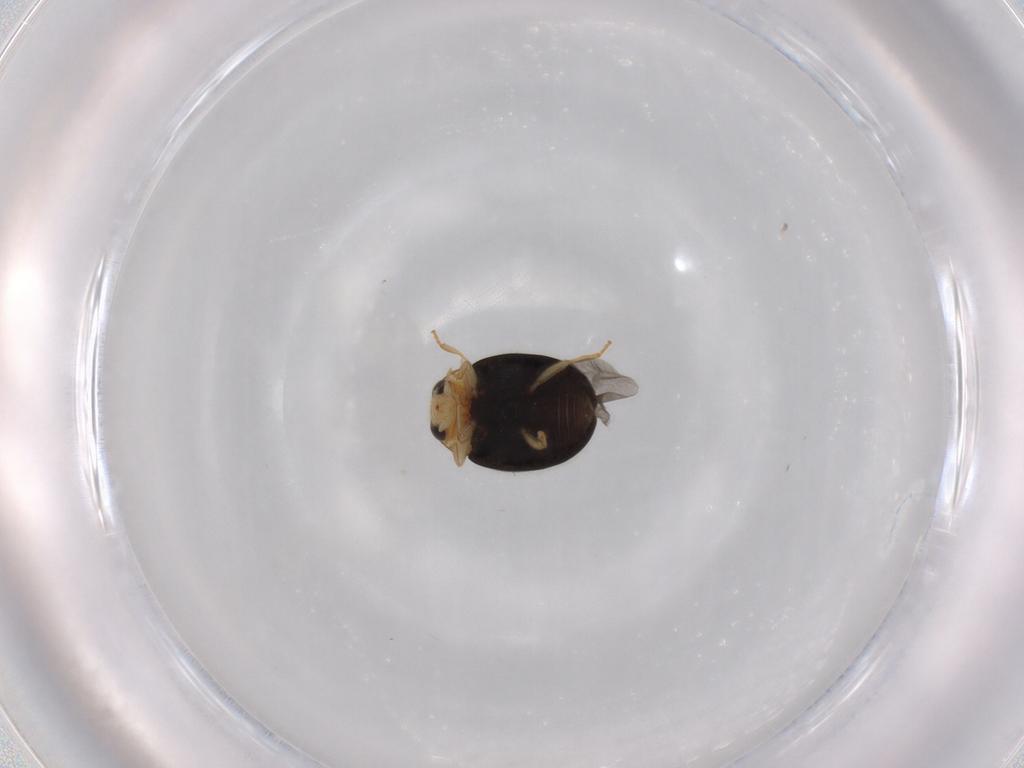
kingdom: Animalia
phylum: Arthropoda
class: Insecta
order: Coleoptera
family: Coccinellidae
